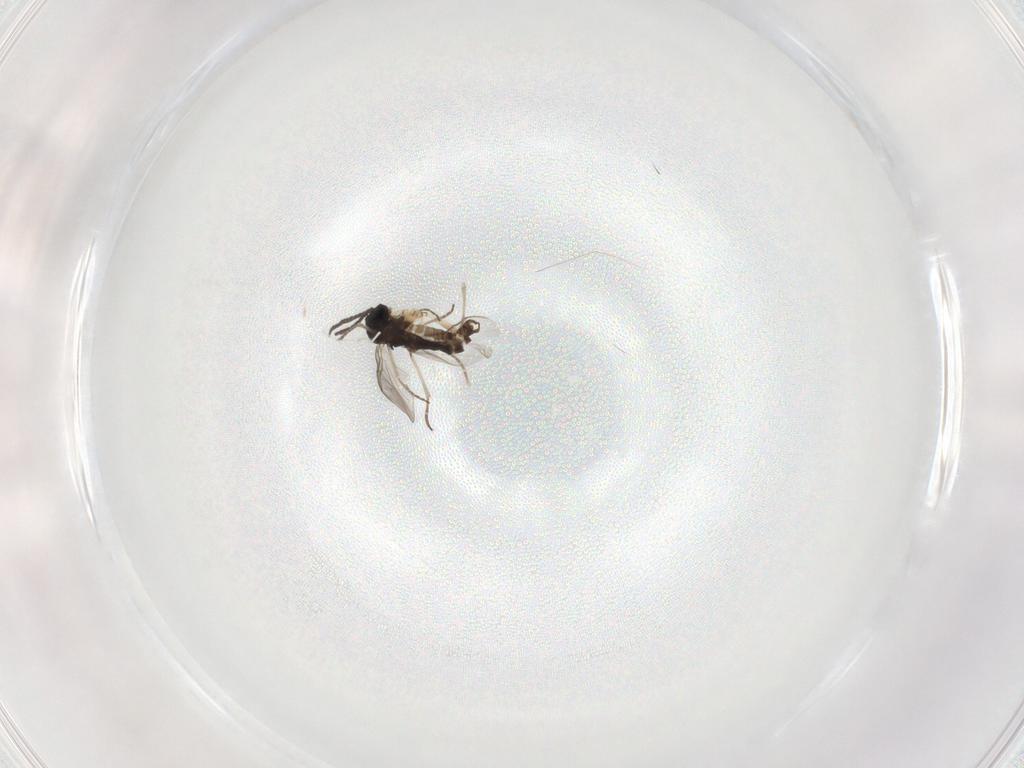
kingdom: Animalia
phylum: Arthropoda
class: Insecta
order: Diptera
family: Sciaridae
